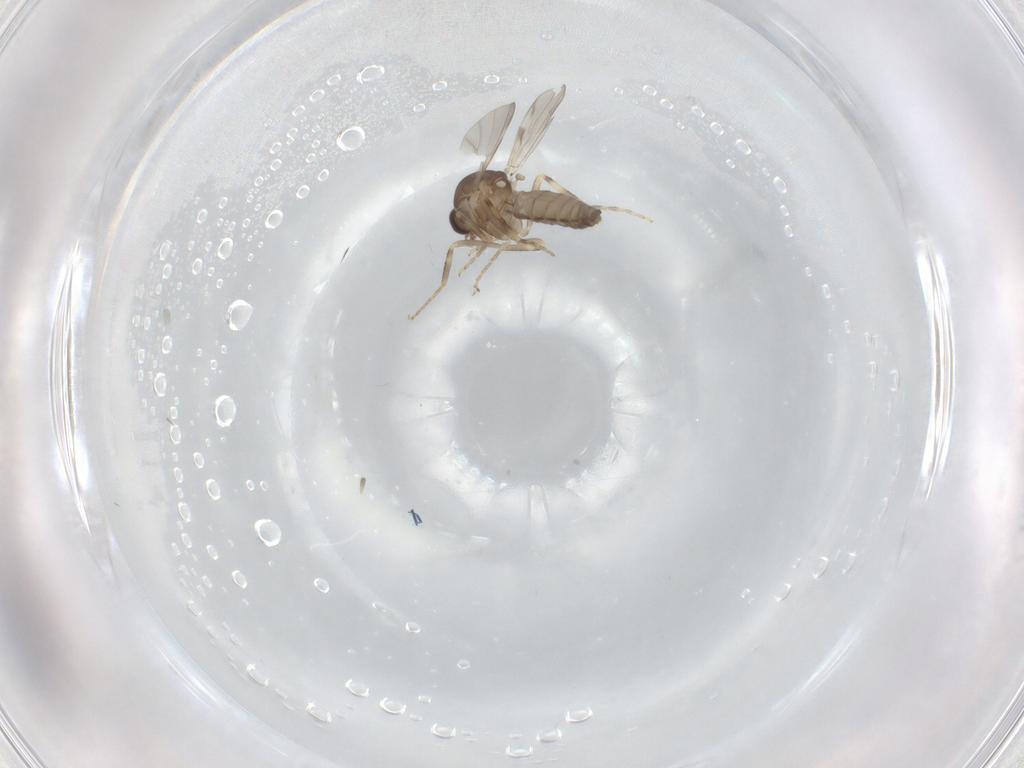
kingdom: Animalia
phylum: Arthropoda
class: Insecta
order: Diptera
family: Ceratopogonidae
